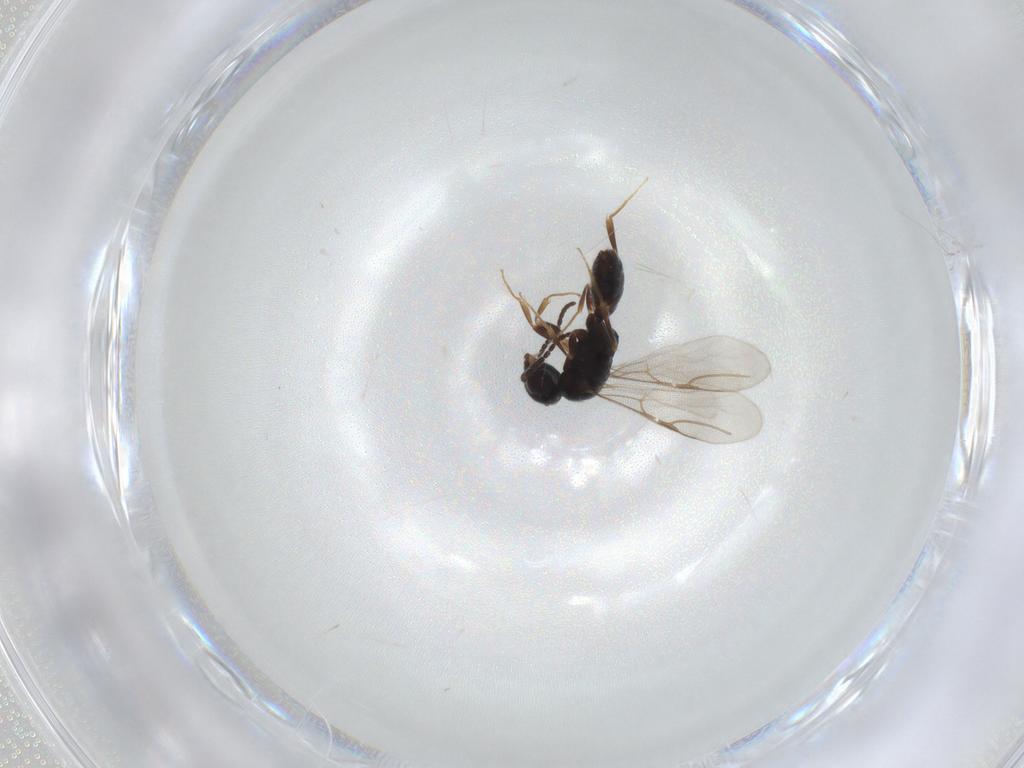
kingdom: Animalia
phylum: Arthropoda
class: Insecta
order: Hymenoptera
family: Bethylidae
